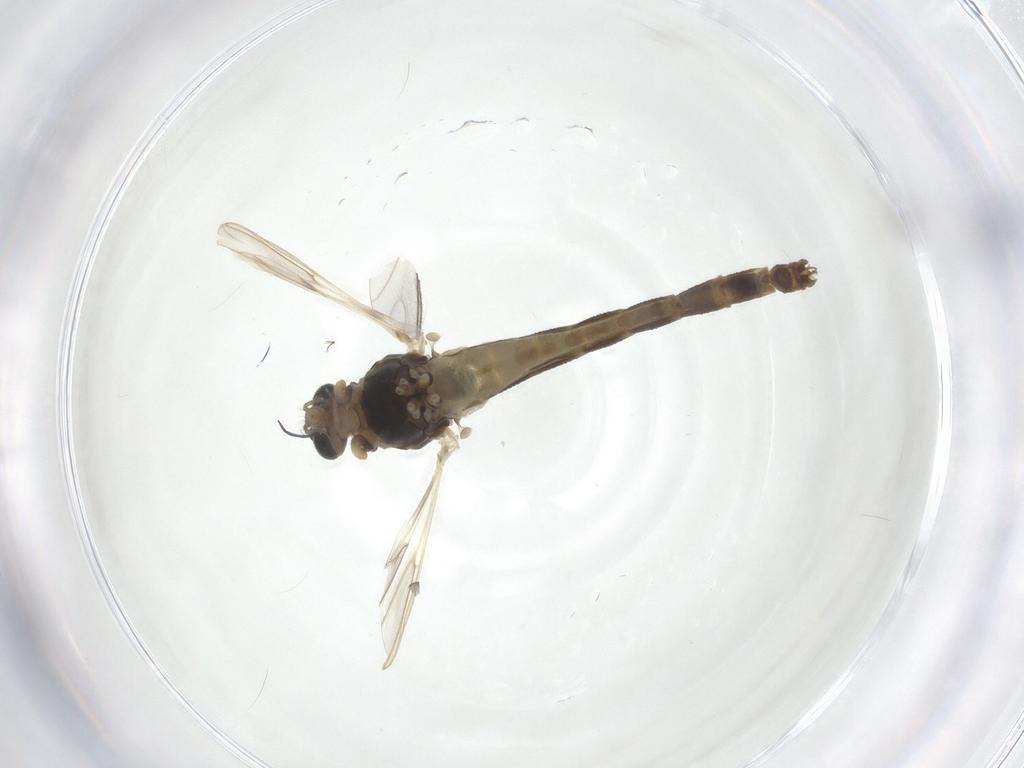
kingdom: Animalia
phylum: Arthropoda
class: Insecta
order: Diptera
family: Chironomidae
